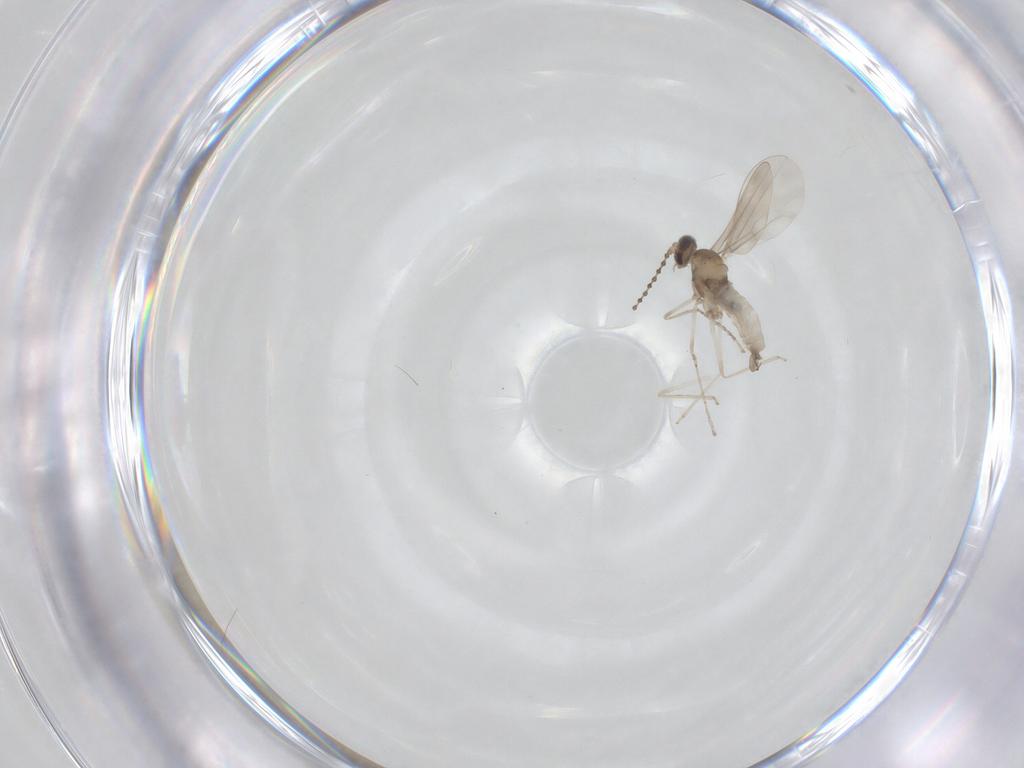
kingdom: Animalia
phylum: Arthropoda
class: Insecta
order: Diptera
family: Cecidomyiidae
